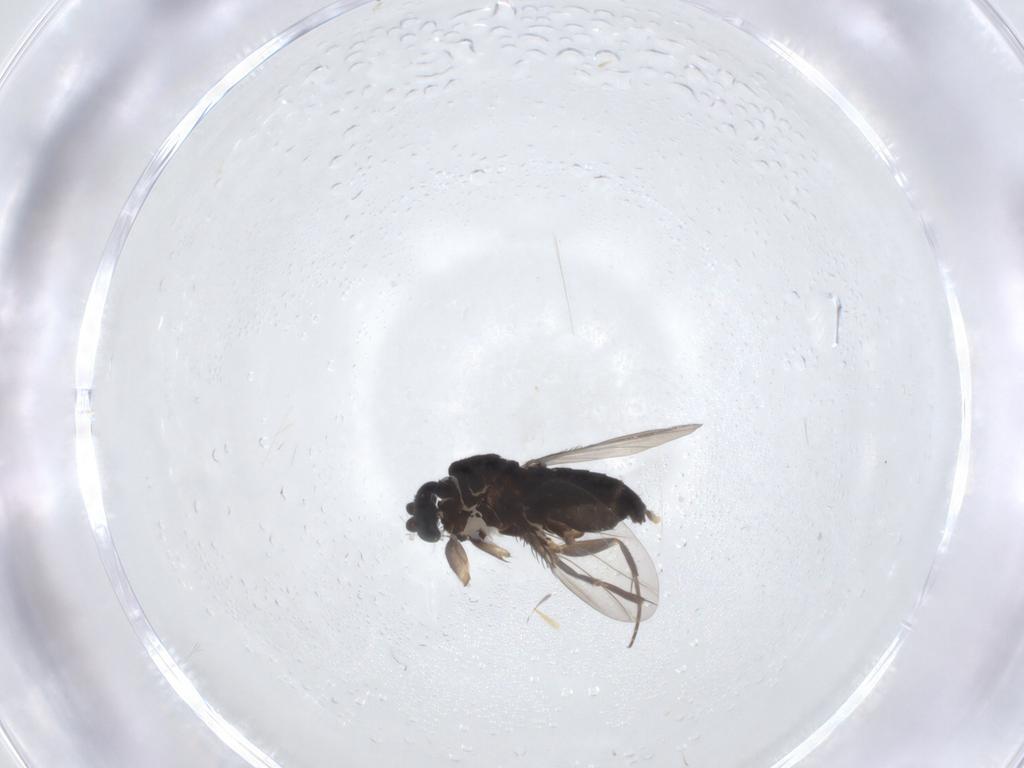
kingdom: Animalia
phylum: Arthropoda
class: Insecta
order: Diptera
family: Phoridae
